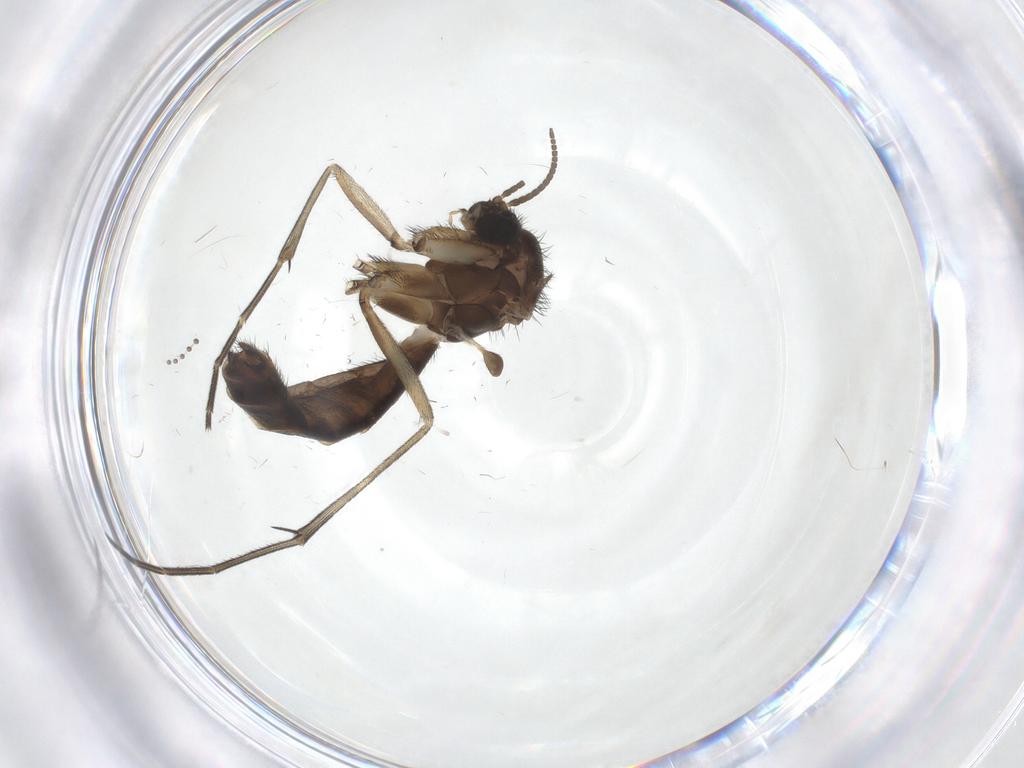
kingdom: Animalia
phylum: Arthropoda
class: Insecta
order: Diptera
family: Keroplatidae
